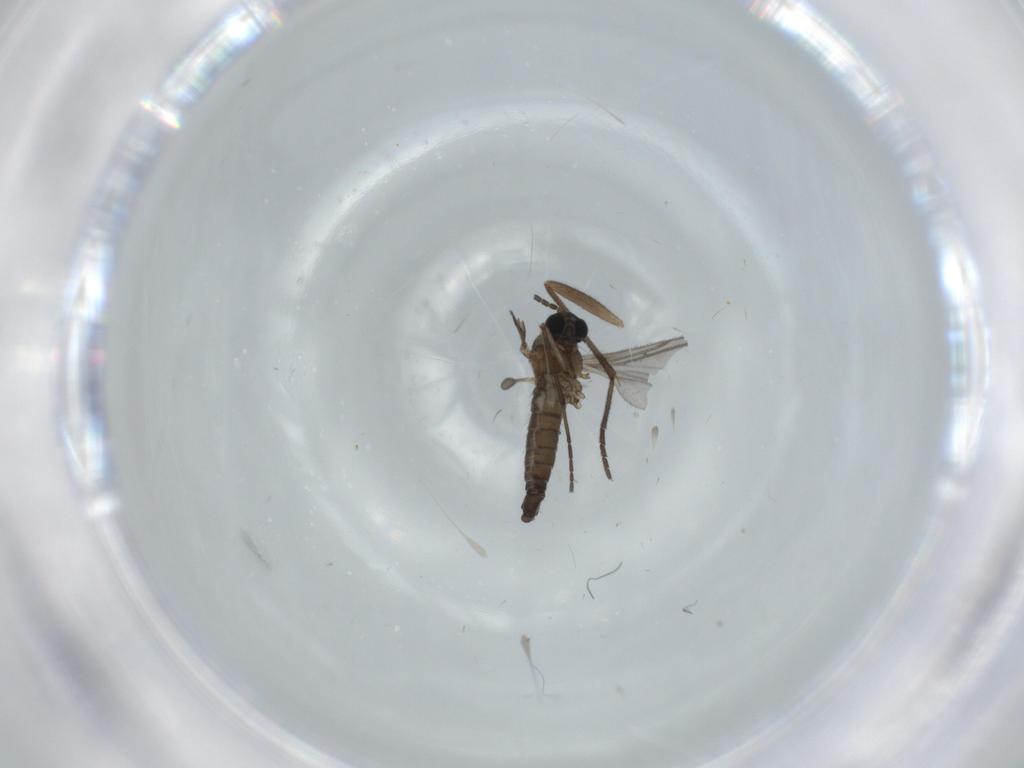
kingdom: Animalia
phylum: Arthropoda
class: Insecta
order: Diptera
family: Sciaridae
